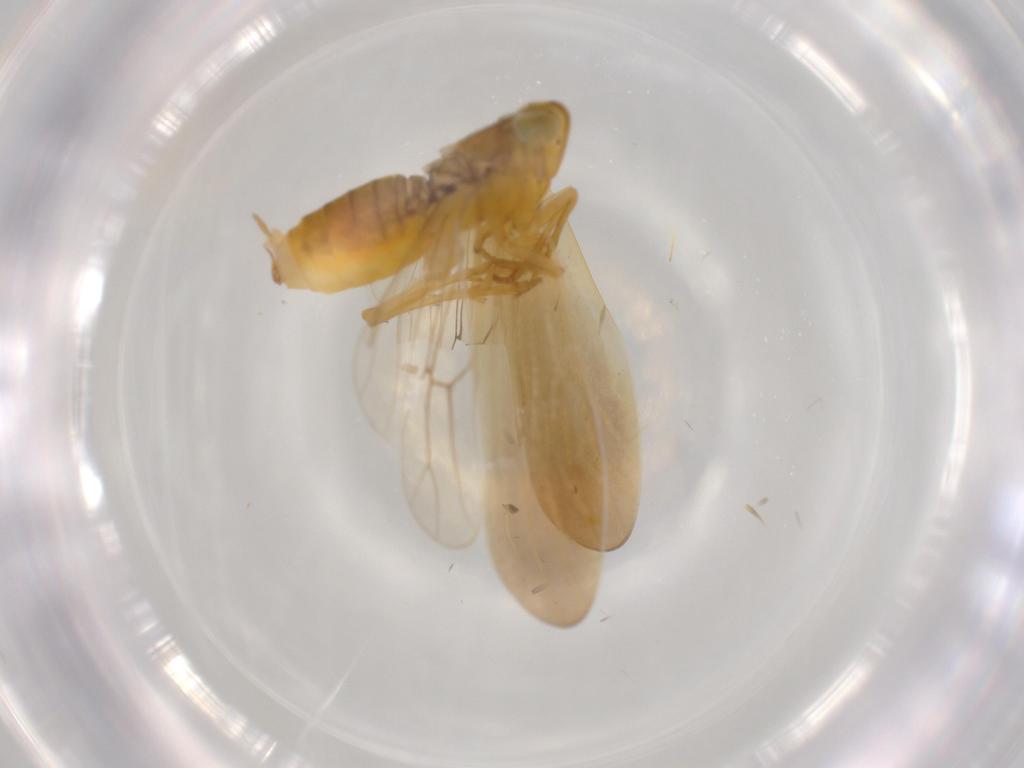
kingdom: Animalia
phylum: Arthropoda
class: Insecta
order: Hemiptera
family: Delphacidae
